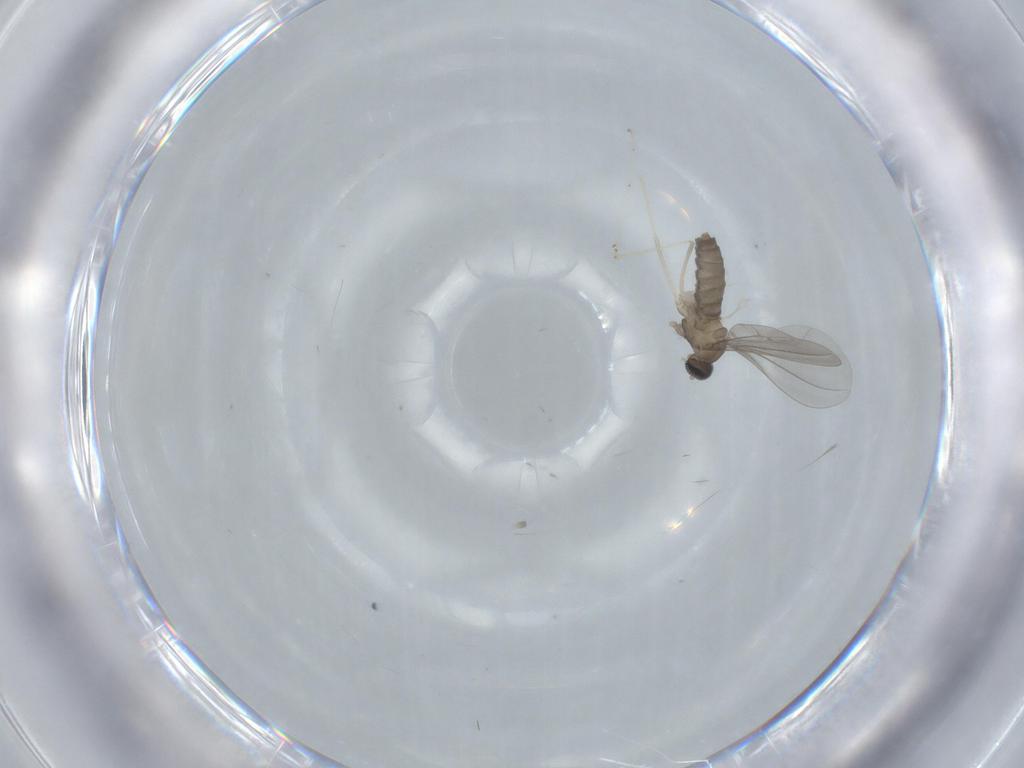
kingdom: Animalia
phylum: Arthropoda
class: Insecta
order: Diptera
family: Cecidomyiidae
